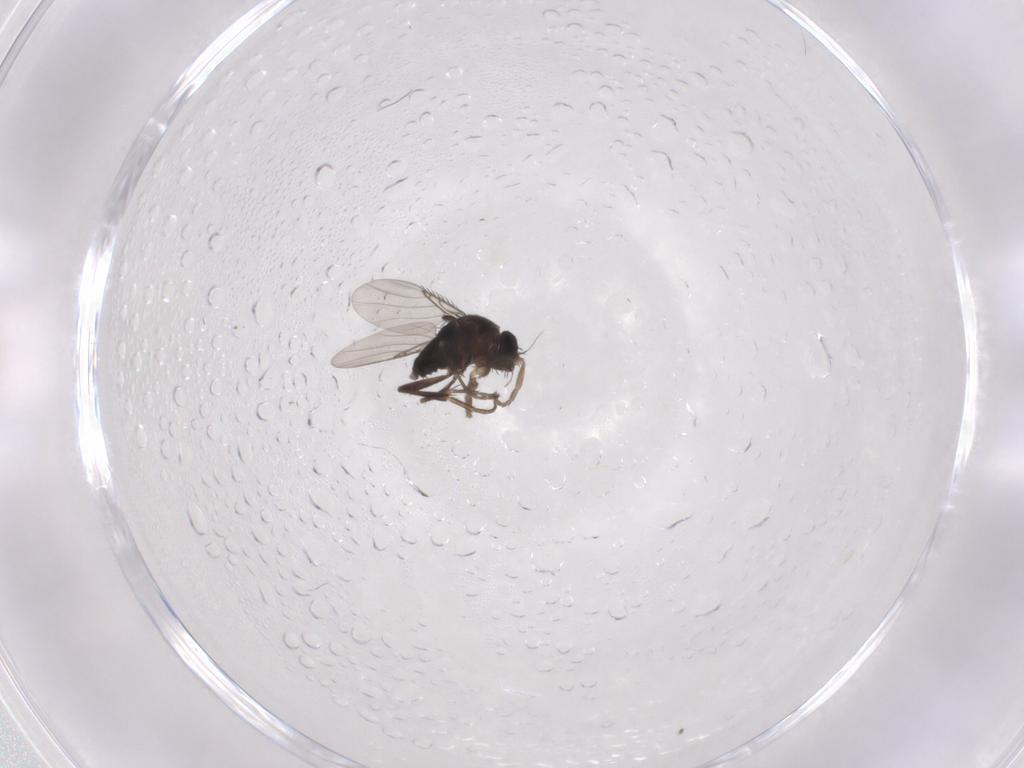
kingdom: Animalia
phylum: Arthropoda
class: Insecta
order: Diptera
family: Phoridae
